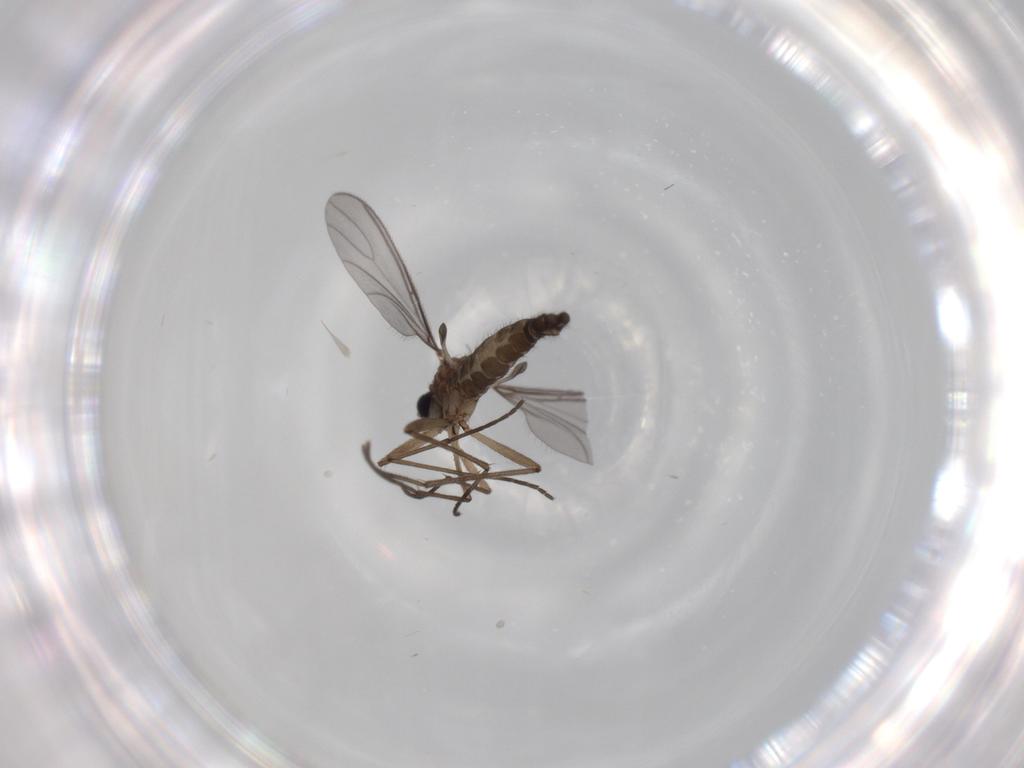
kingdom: Animalia
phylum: Arthropoda
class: Insecta
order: Diptera
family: Sciaridae
